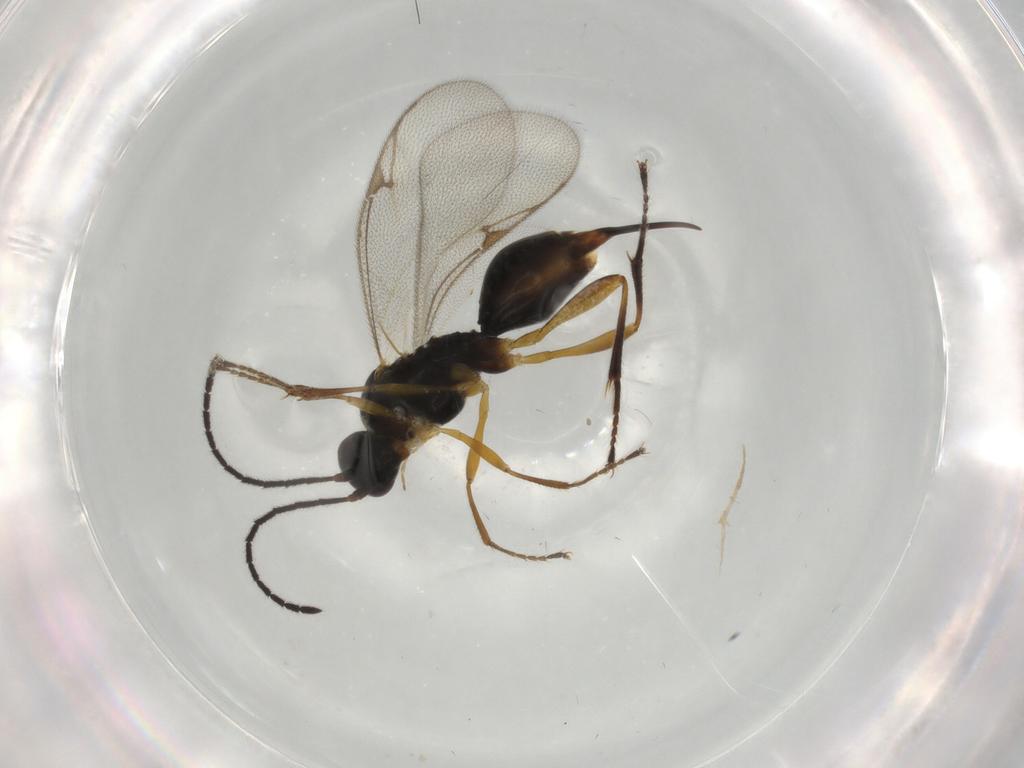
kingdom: Animalia
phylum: Arthropoda
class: Insecta
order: Hymenoptera
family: Proctotrupidae
